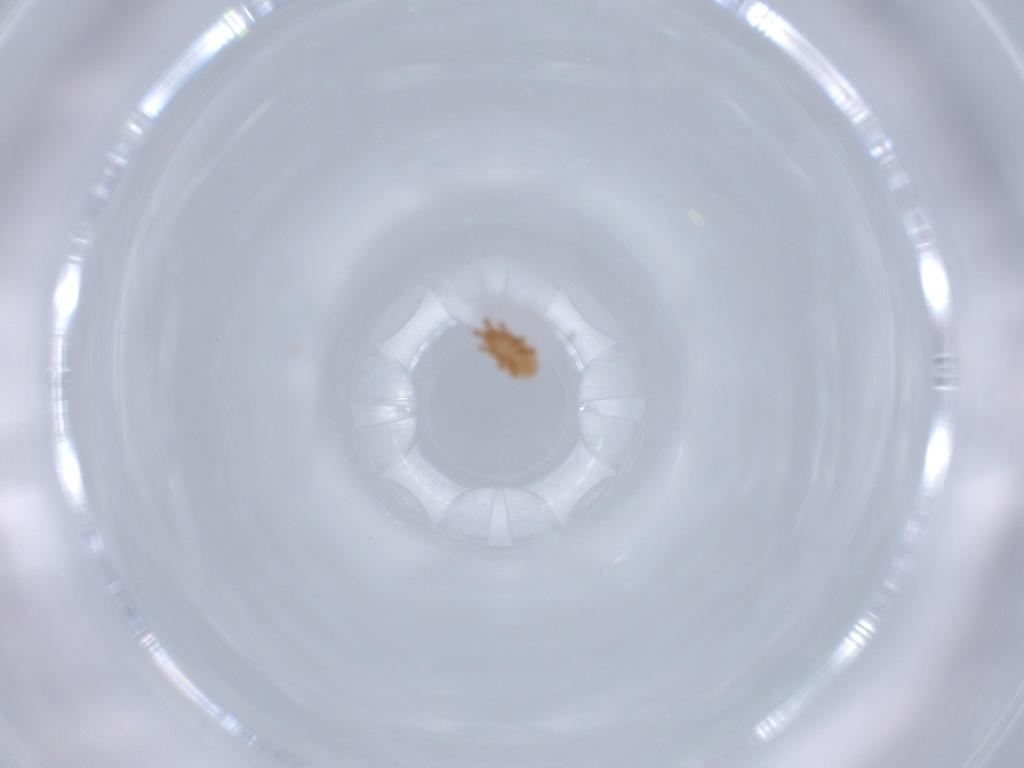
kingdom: Animalia
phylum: Arthropoda
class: Arachnida
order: Mesostigmata
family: Dinychidae
